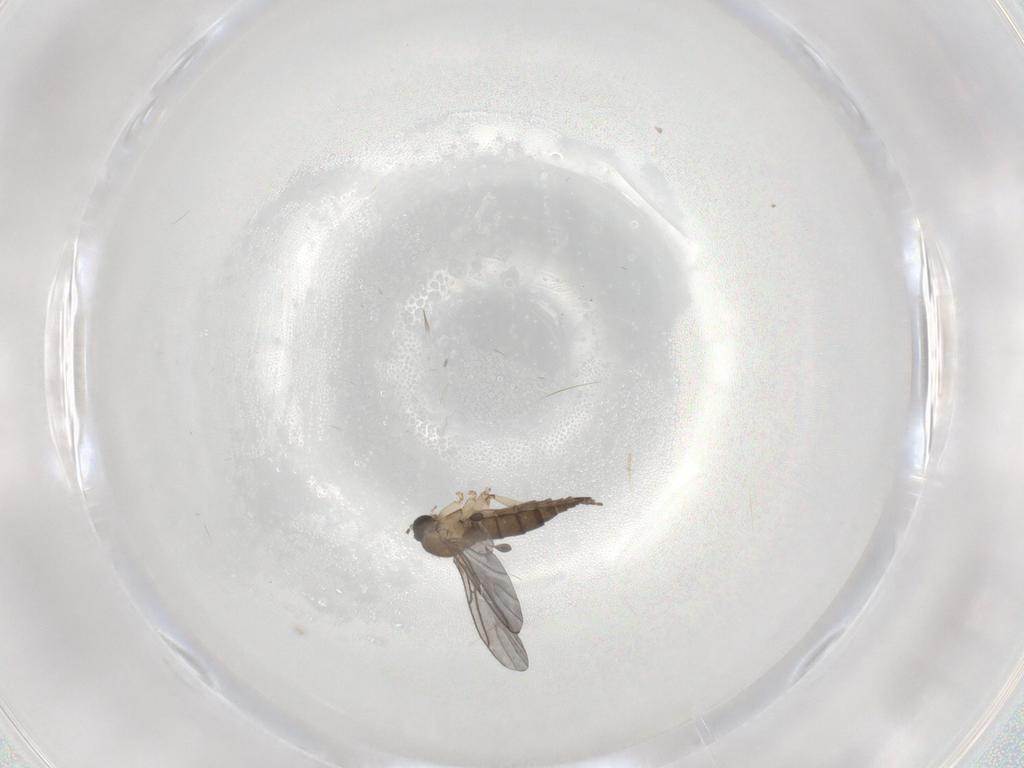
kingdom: Animalia
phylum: Arthropoda
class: Insecta
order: Diptera
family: Sciaridae
